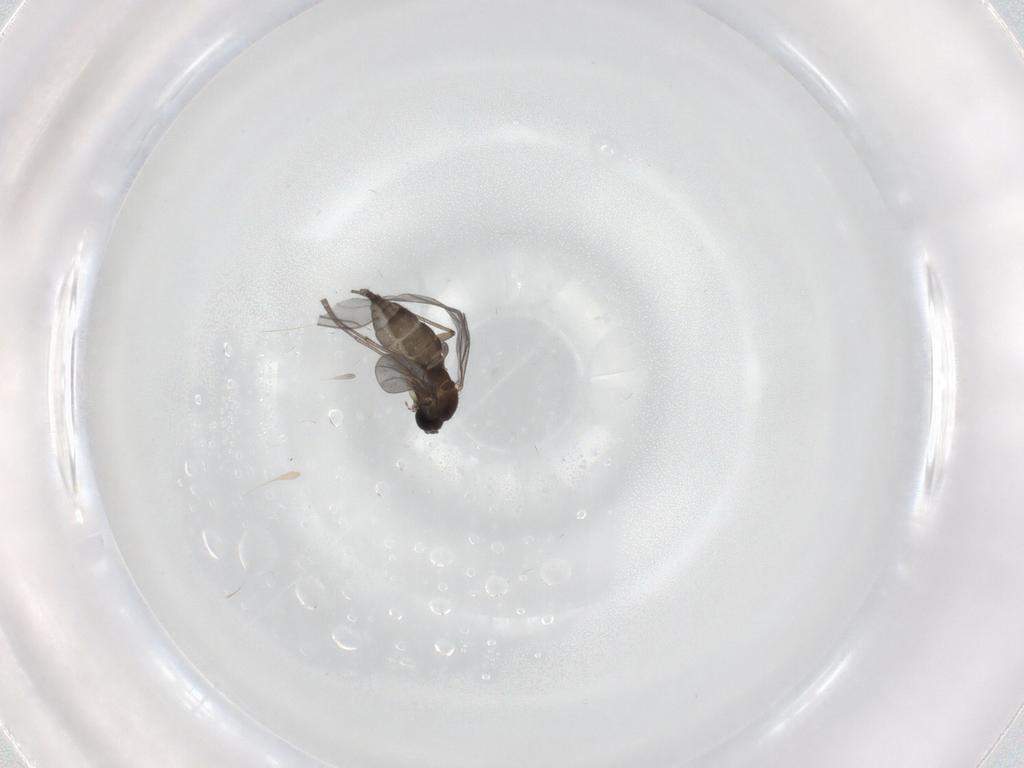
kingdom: Animalia
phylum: Arthropoda
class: Insecta
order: Diptera
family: Sciaridae
